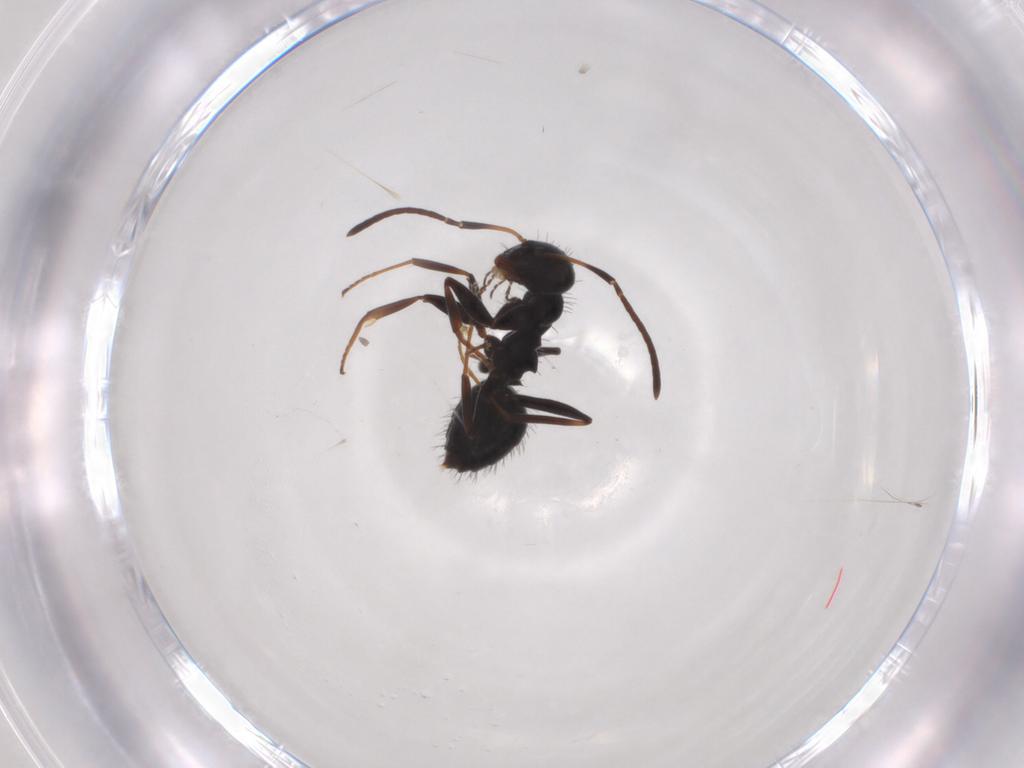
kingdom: Animalia
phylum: Arthropoda
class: Insecta
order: Hymenoptera
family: Formicidae
